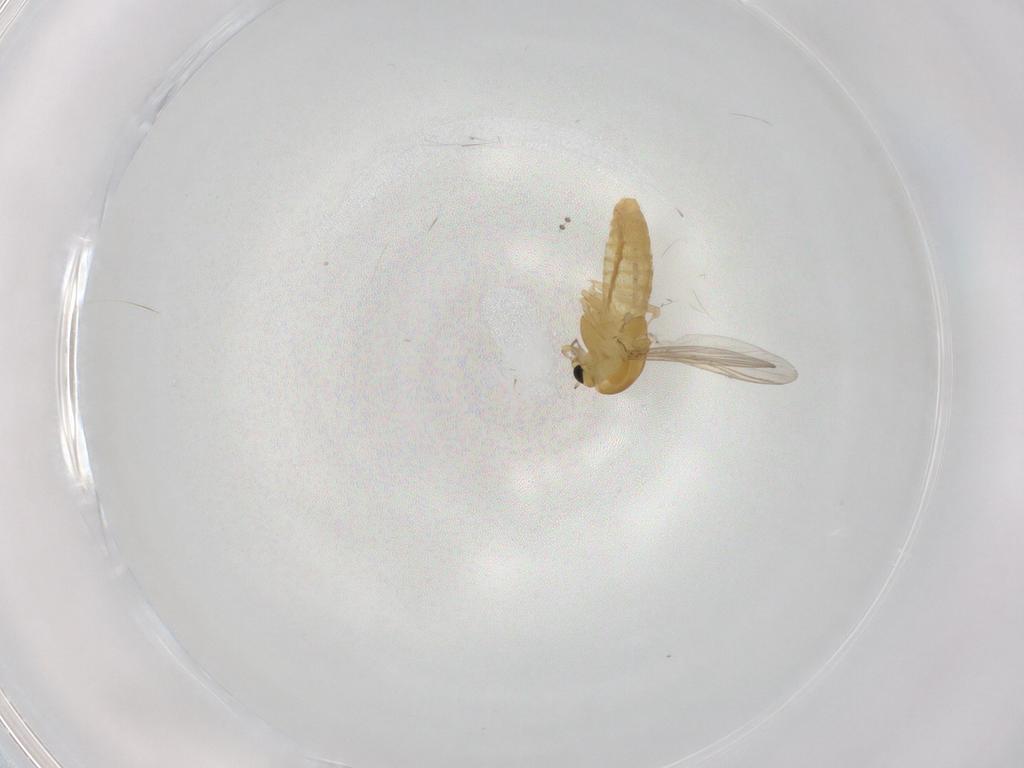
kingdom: Animalia
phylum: Arthropoda
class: Insecta
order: Diptera
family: Chironomidae
